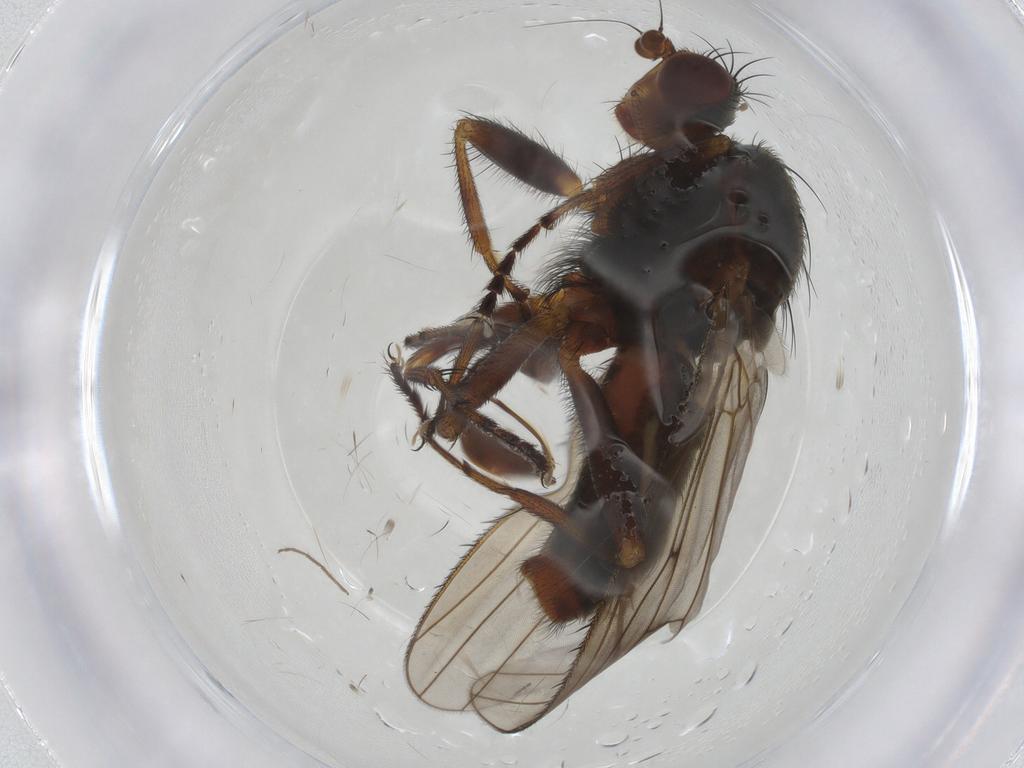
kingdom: Animalia
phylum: Arthropoda
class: Insecta
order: Diptera
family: Heleomyzidae
